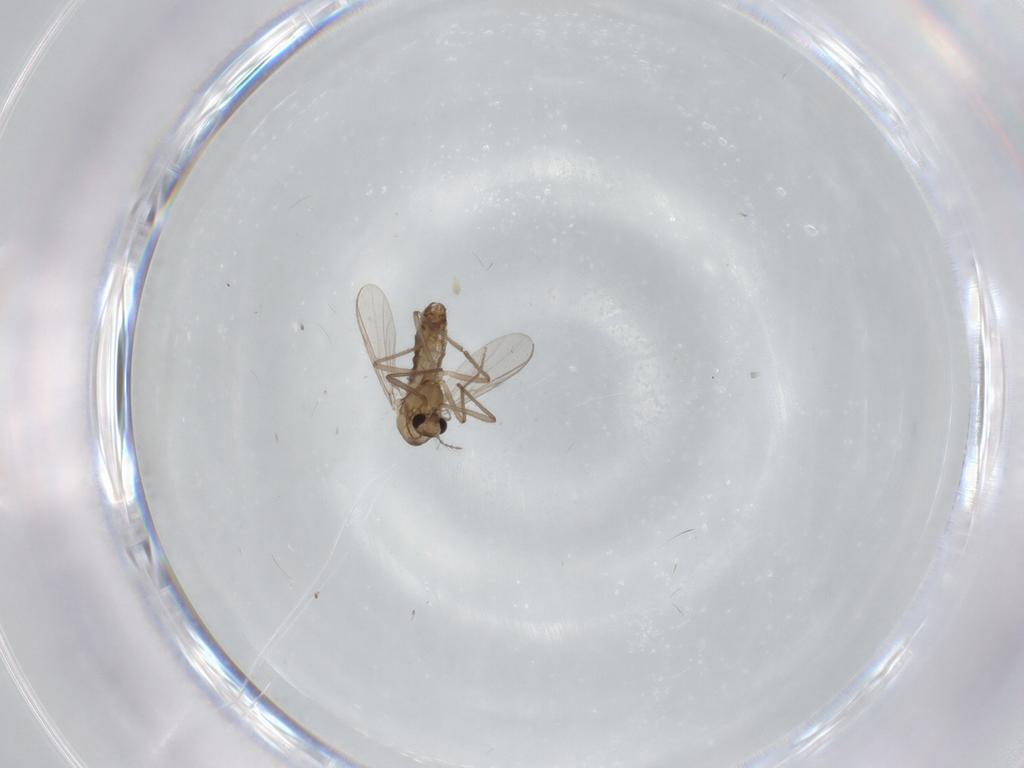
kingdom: Animalia
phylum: Arthropoda
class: Insecta
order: Diptera
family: Chironomidae
